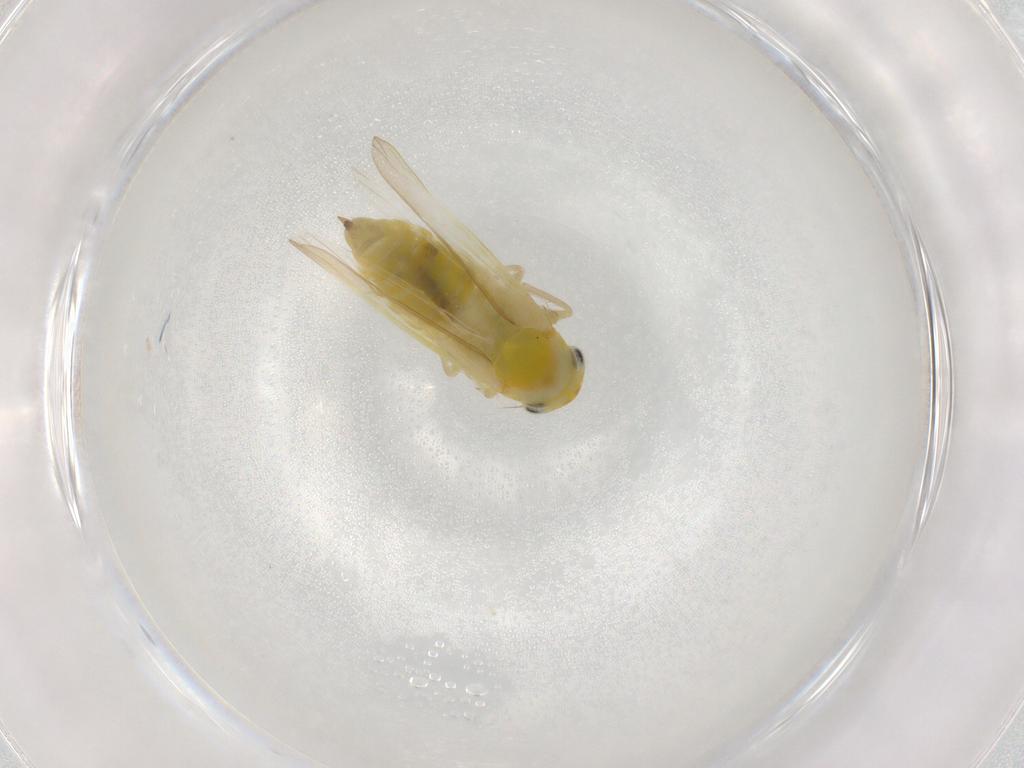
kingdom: Animalia
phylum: Arthropoda
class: Insecta
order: Hemiptera
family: Cicadellidae
